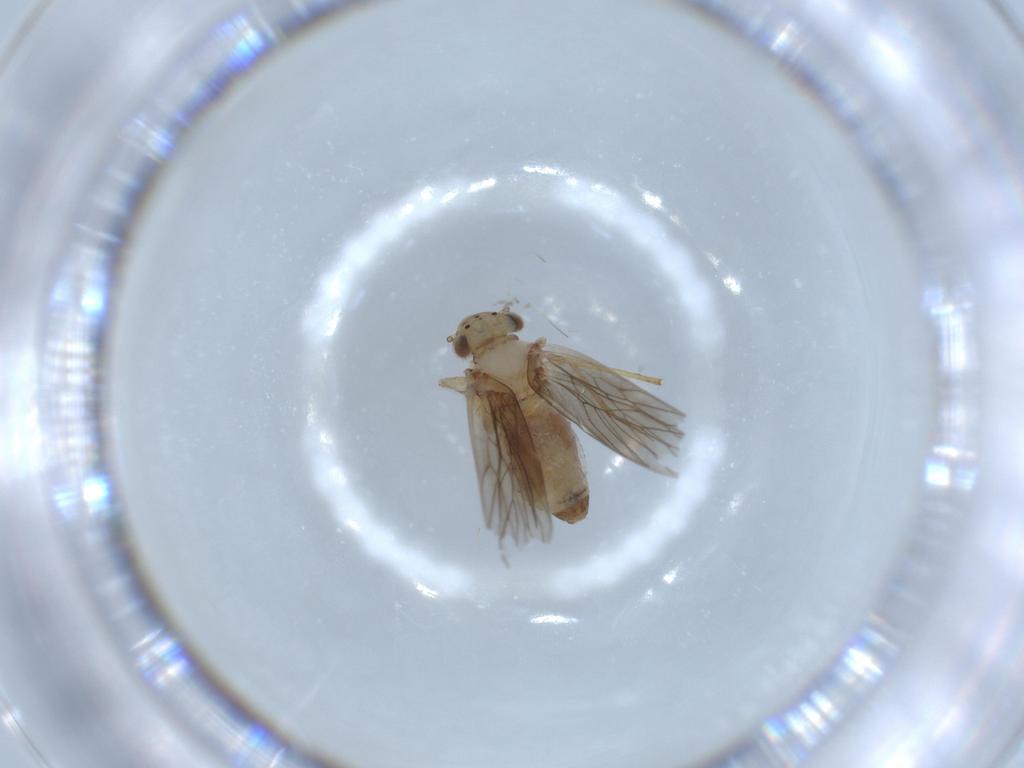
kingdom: Animalia
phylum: Arthropoda
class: Insecta
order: Psocodea
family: Lepidopsocidae
